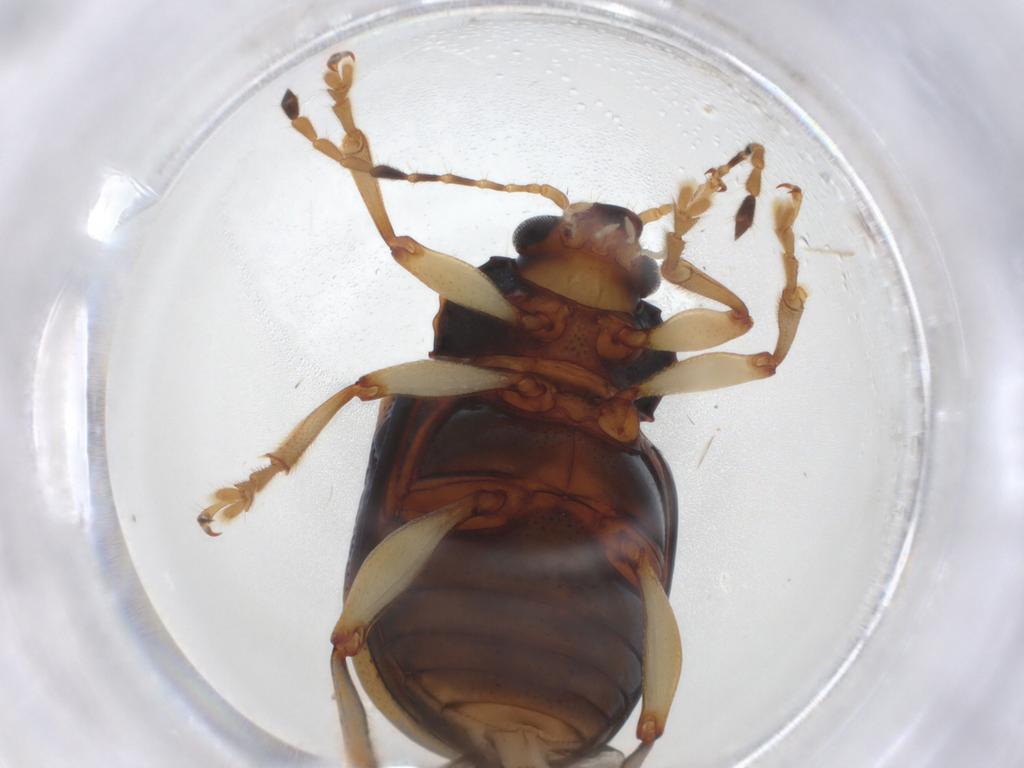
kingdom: Animalia
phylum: Arthropoda
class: Insecta
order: Coleoptera
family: Chrysomelidae
